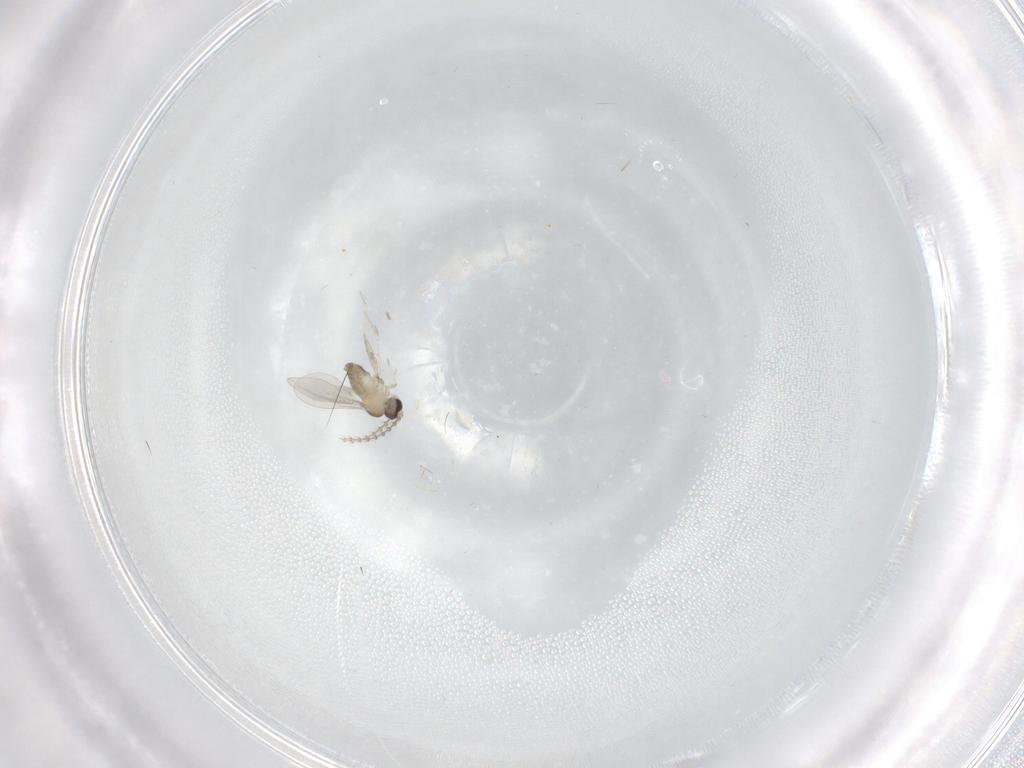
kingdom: Animalia
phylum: Arthropoda
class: Insecta
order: Diptera
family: Cecidomyiidae
